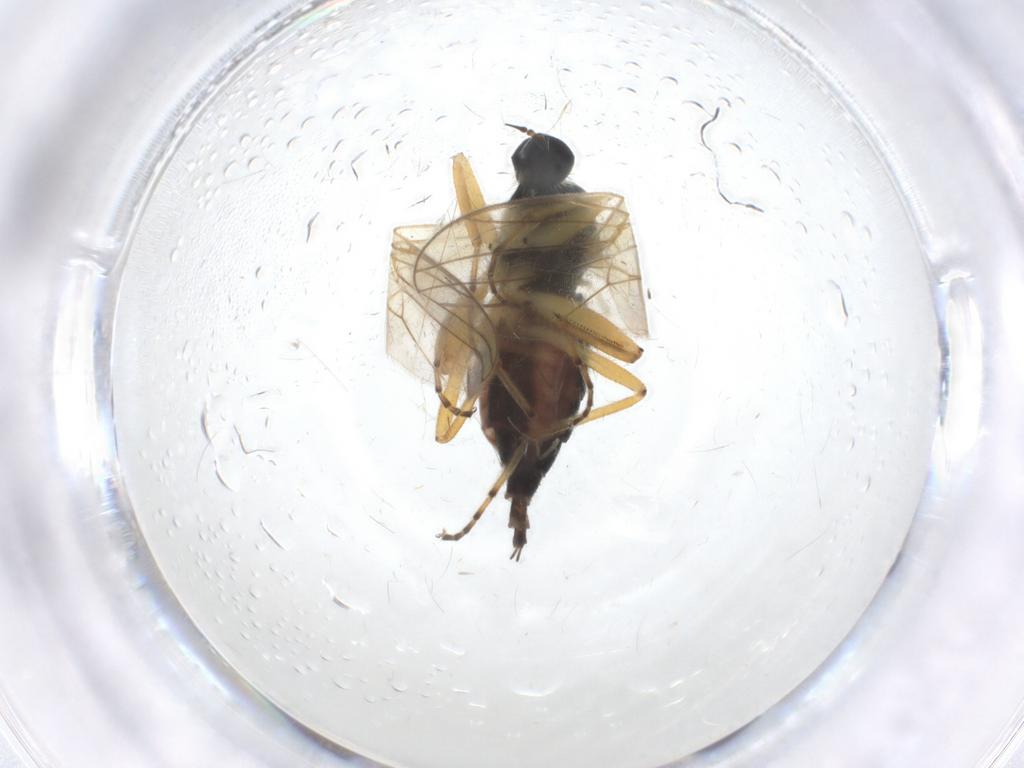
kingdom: Animalia
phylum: Arthropoda
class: Insecta
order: Diptera
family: Hybotidae
